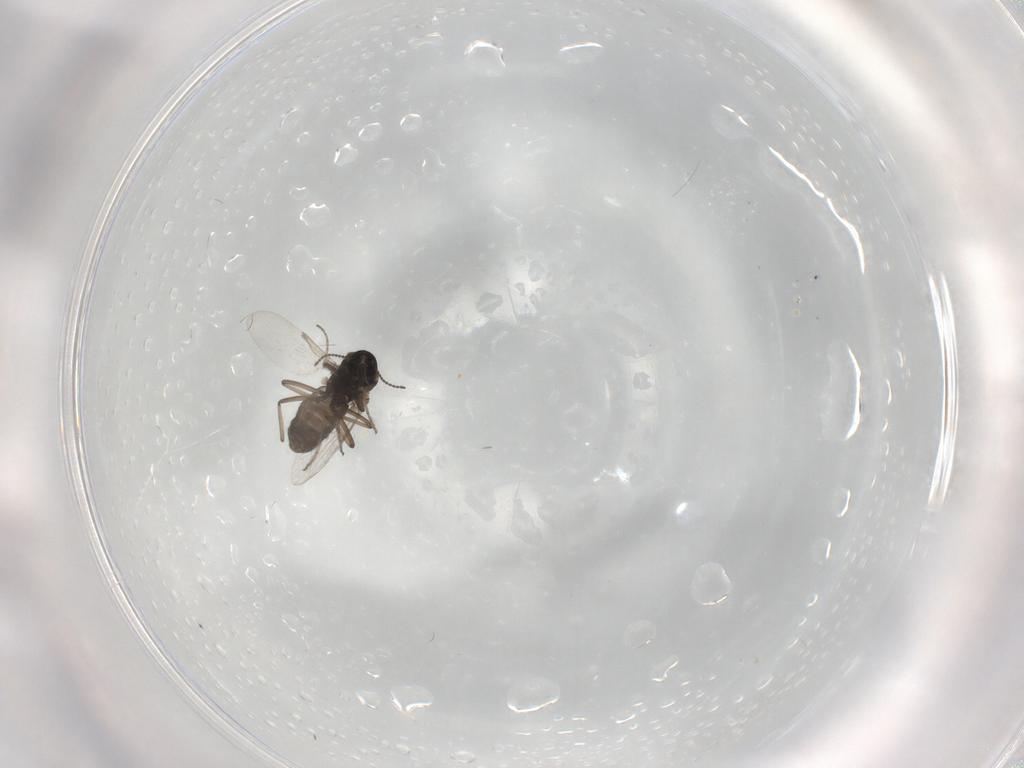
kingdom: Animalia
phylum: Arthropoda
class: Insecta
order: Diptera
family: Ceratopogonidae
